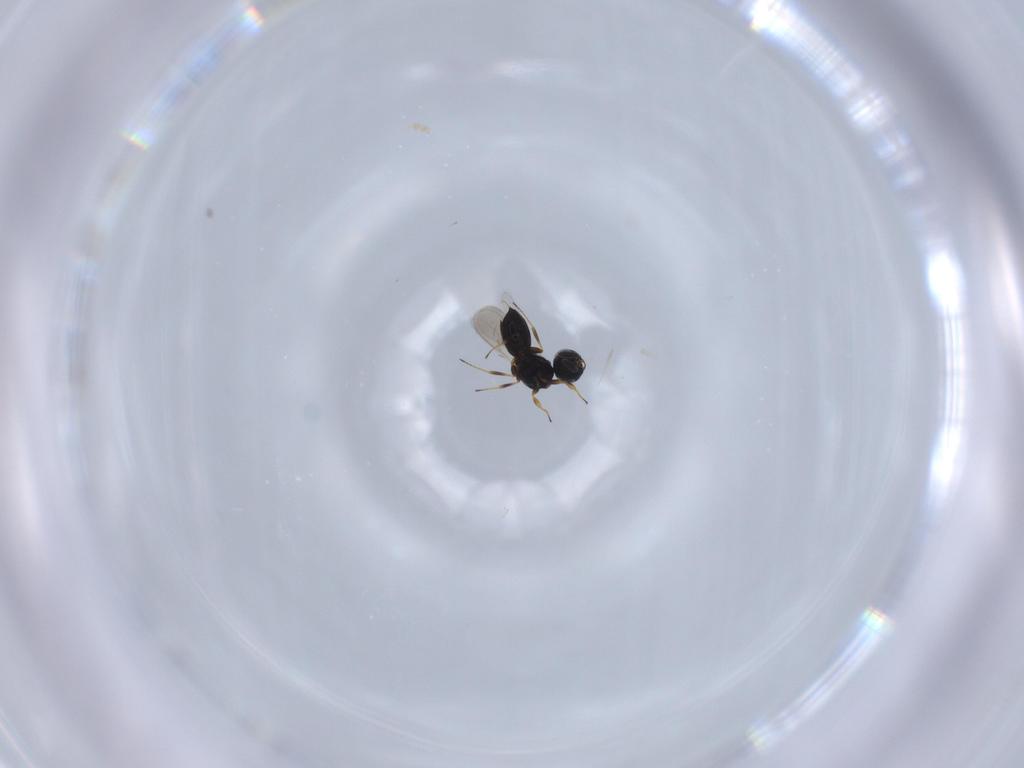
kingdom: Animalia
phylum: Arthropoda
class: Insecta
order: Hymenoptera
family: Scelionidae
